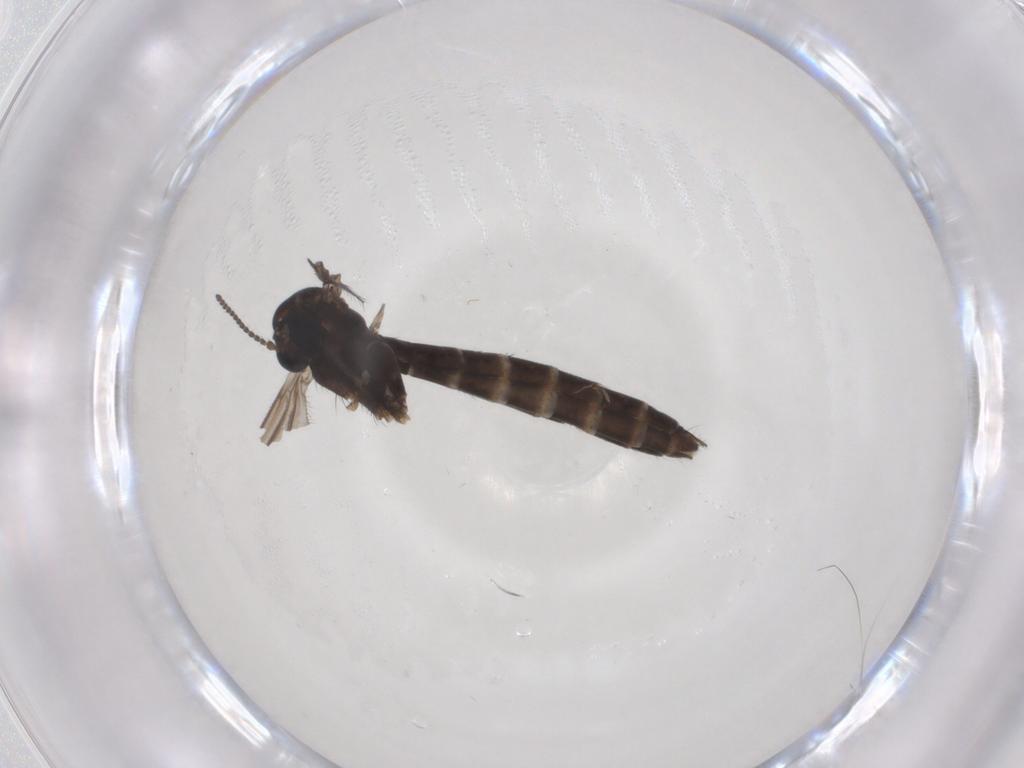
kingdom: Animalia
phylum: Arthropoda
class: Insecta
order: Diptera
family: Ditomyiidae
